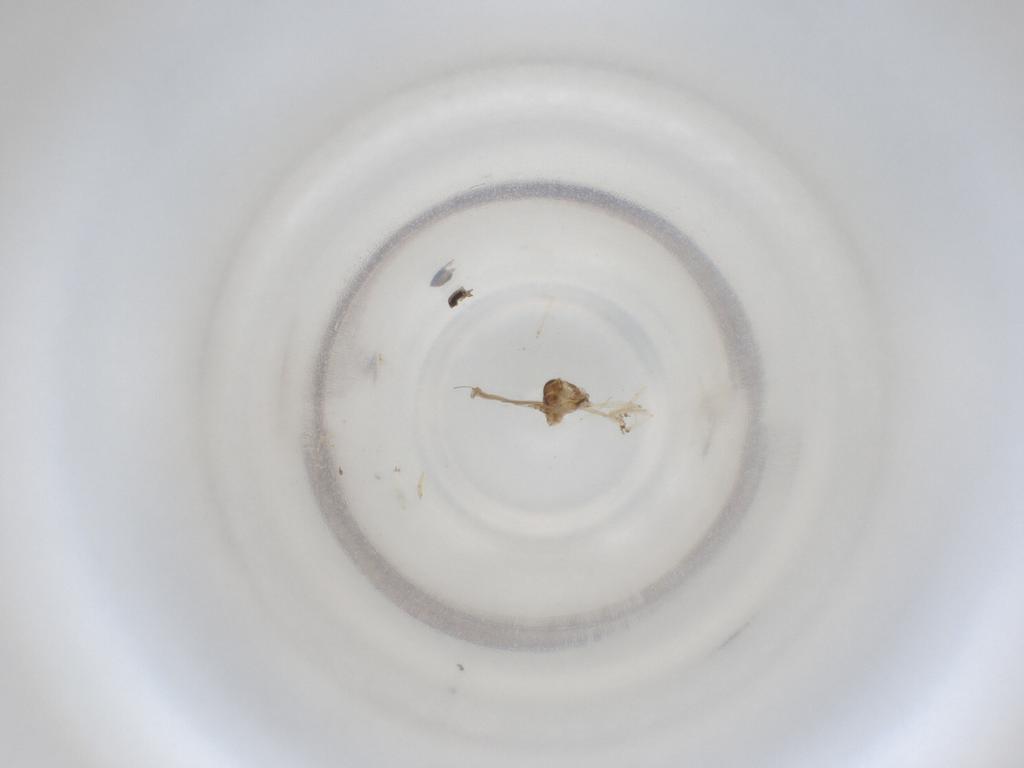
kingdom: Animalia
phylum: Arthropoda
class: Insecta
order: Diptera
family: Cecidomyiidae
